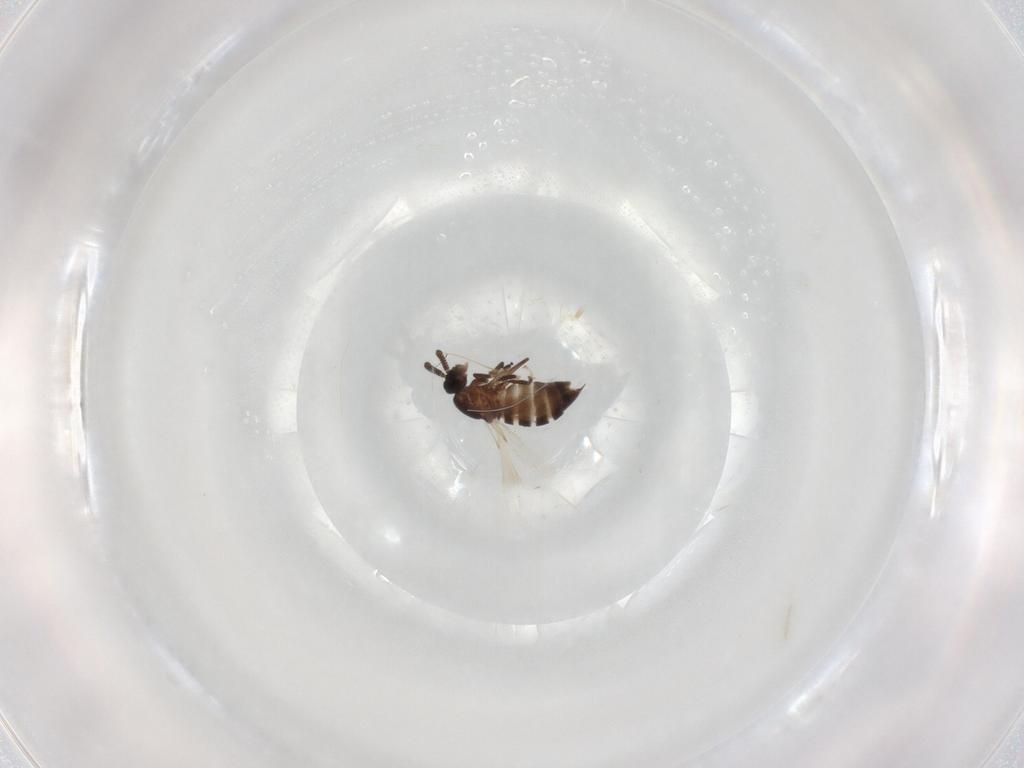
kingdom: Animalia
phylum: Arthropoda
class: Insecta
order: Diptera
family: Scatopsidae
